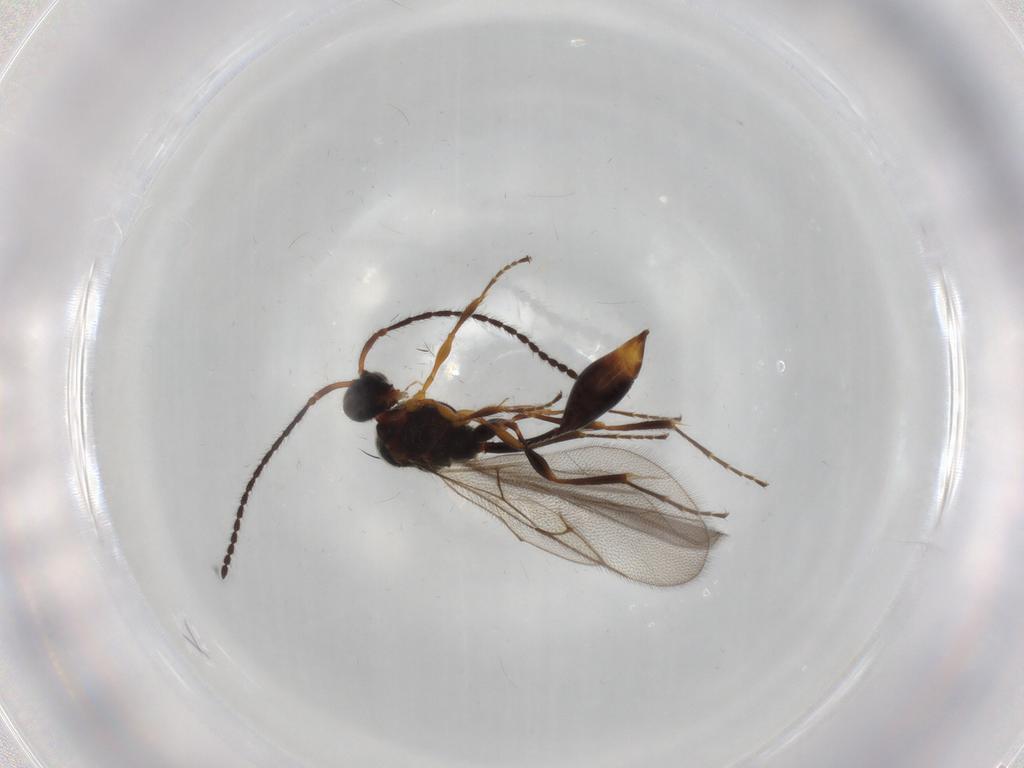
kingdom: Animalia
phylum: Arthropoda
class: Insecta
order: Hymenoptera
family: Diapriidae
